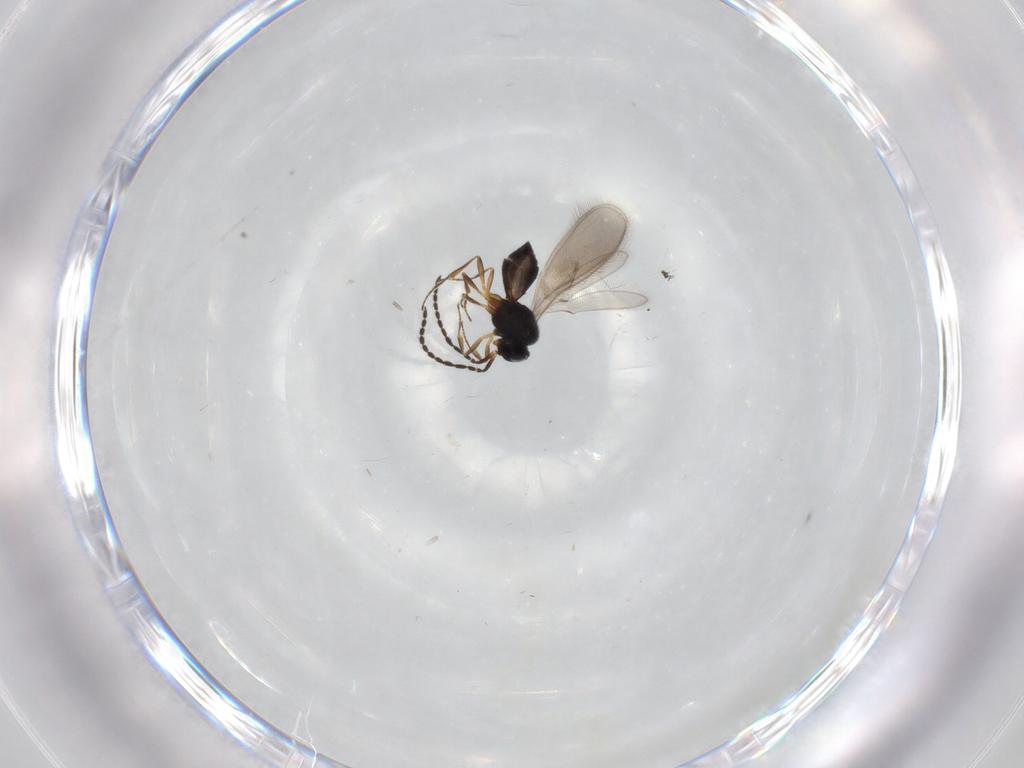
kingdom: Animalia
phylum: Arthropoda
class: Insecta
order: Hymenoptera
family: Scelionidae
